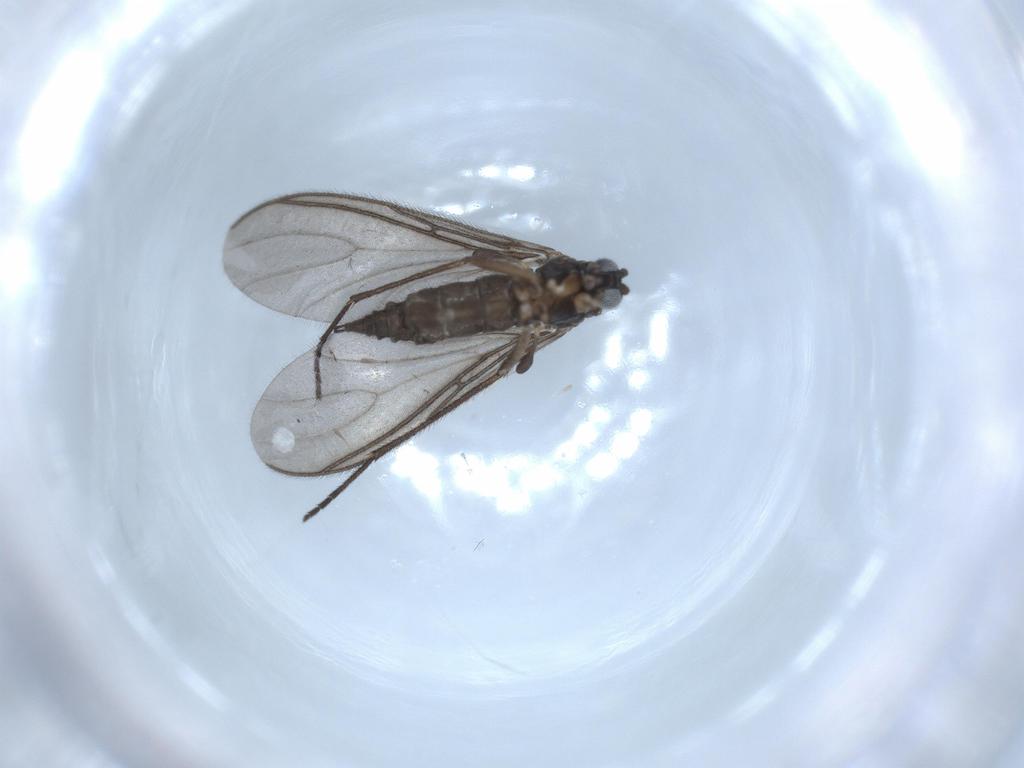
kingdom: Animalia
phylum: Arthropoda
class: Insecta
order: Diptera
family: Sciaridae
